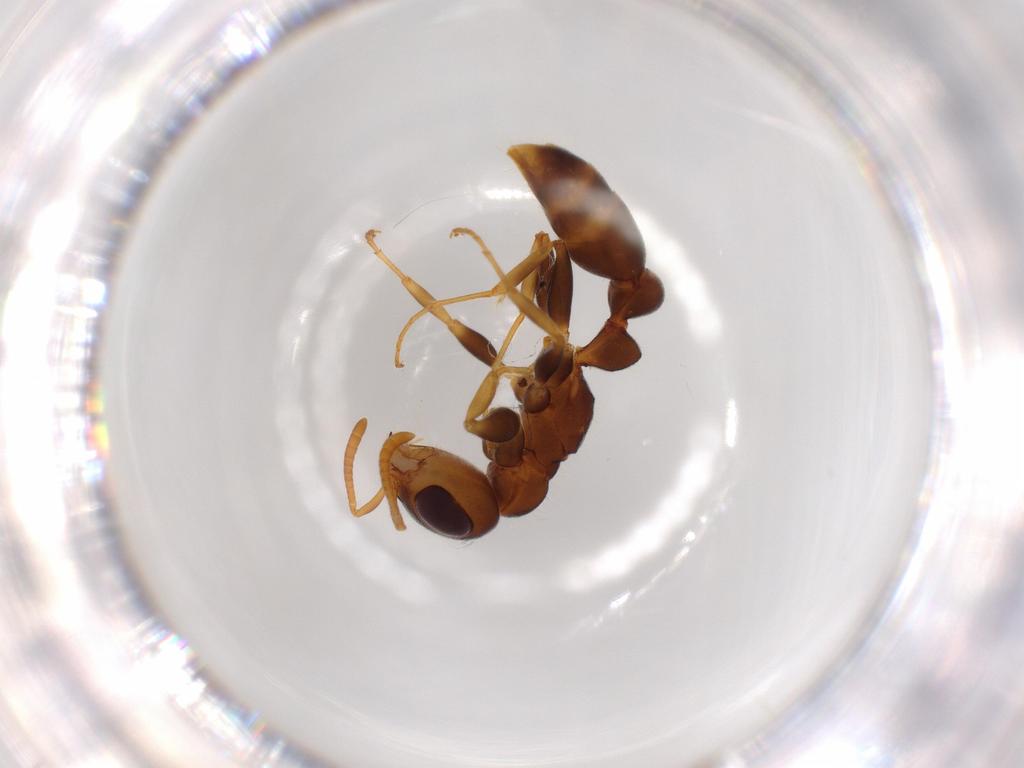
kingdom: Animalia
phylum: Arthropoda
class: Insecta
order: Hymenoptera
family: Formicidae
